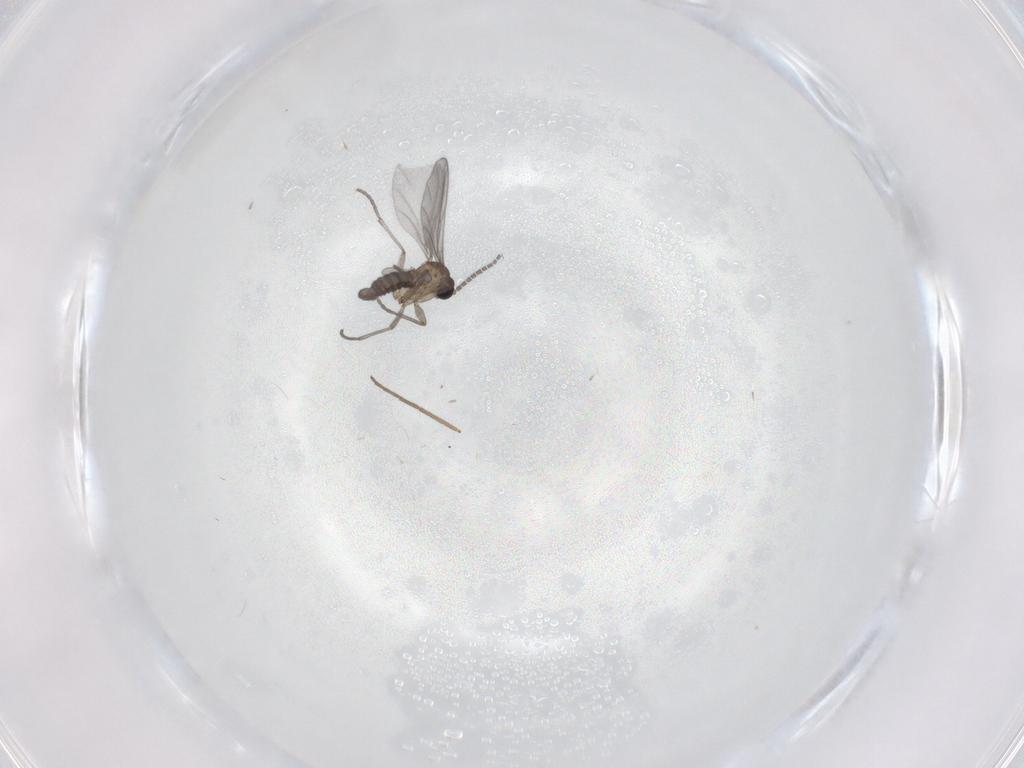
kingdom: Animalia
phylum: Arthropoda
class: Insecta
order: Diptera
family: Sciaridae
